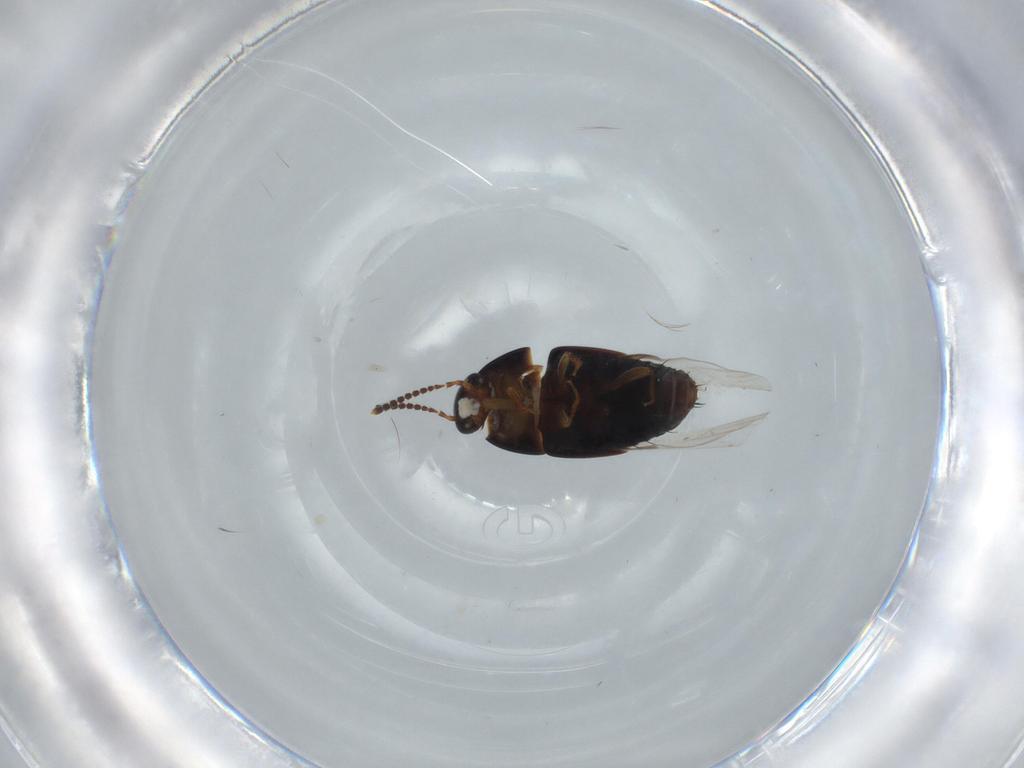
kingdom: Animalia
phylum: Arthropoda
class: Insecta
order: Coleoptera
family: Staphylinidae
